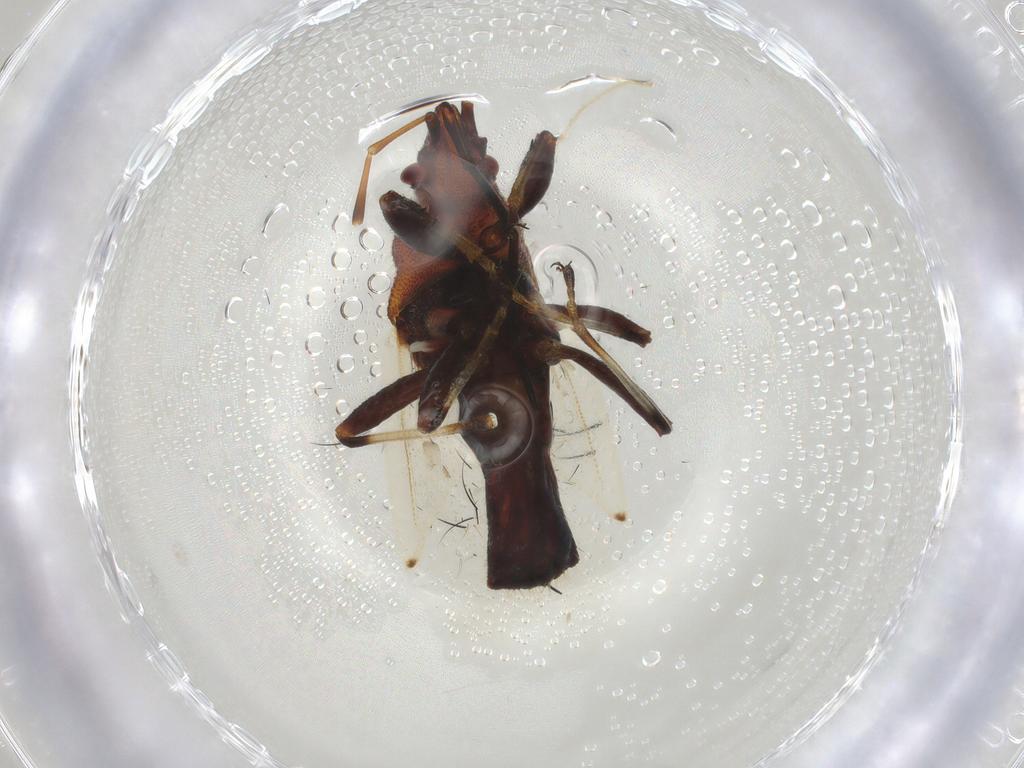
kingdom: Animalia
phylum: Arthropoda
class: Insecta
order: Hemiptera
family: Oxycarenidae
